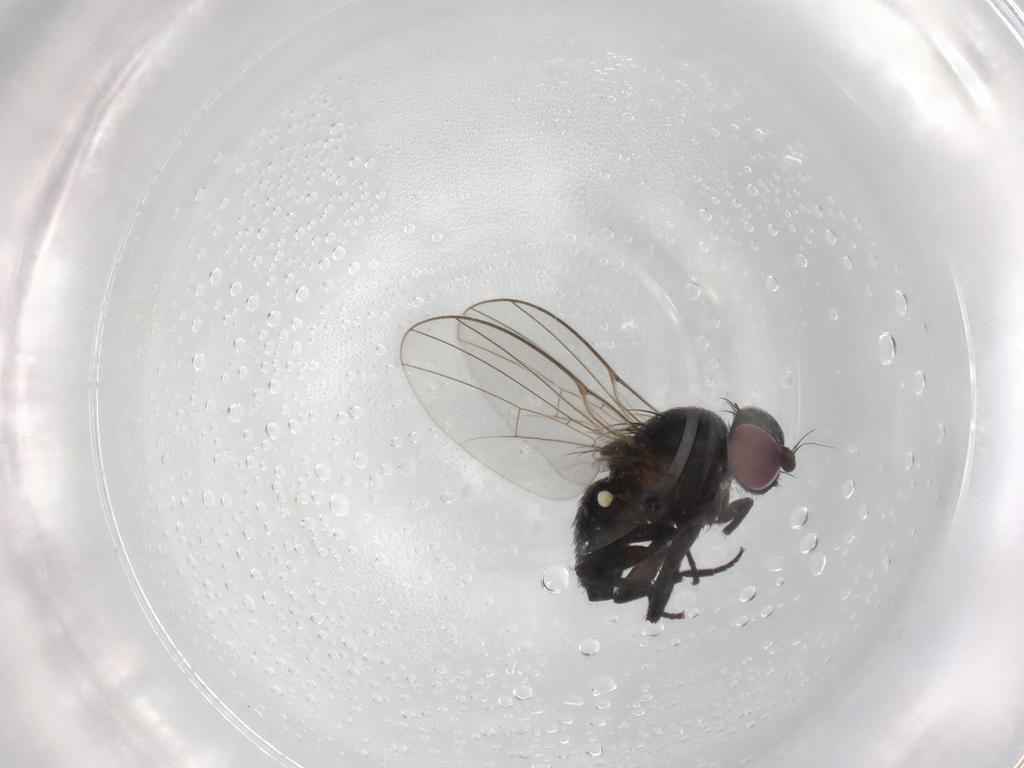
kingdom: Animalia
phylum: Arthropoda
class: Insecta
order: Diptera
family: Agromyzidae
